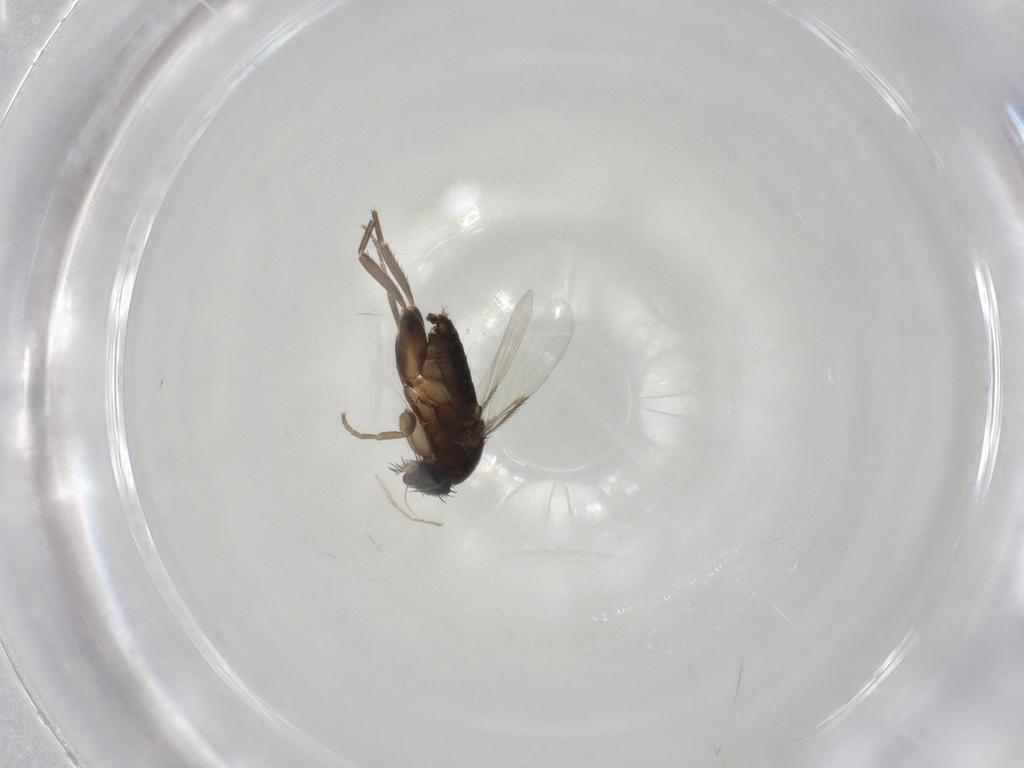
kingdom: Animalia
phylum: Arthropoda
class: Insecta
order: Diptera
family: Phoridae
